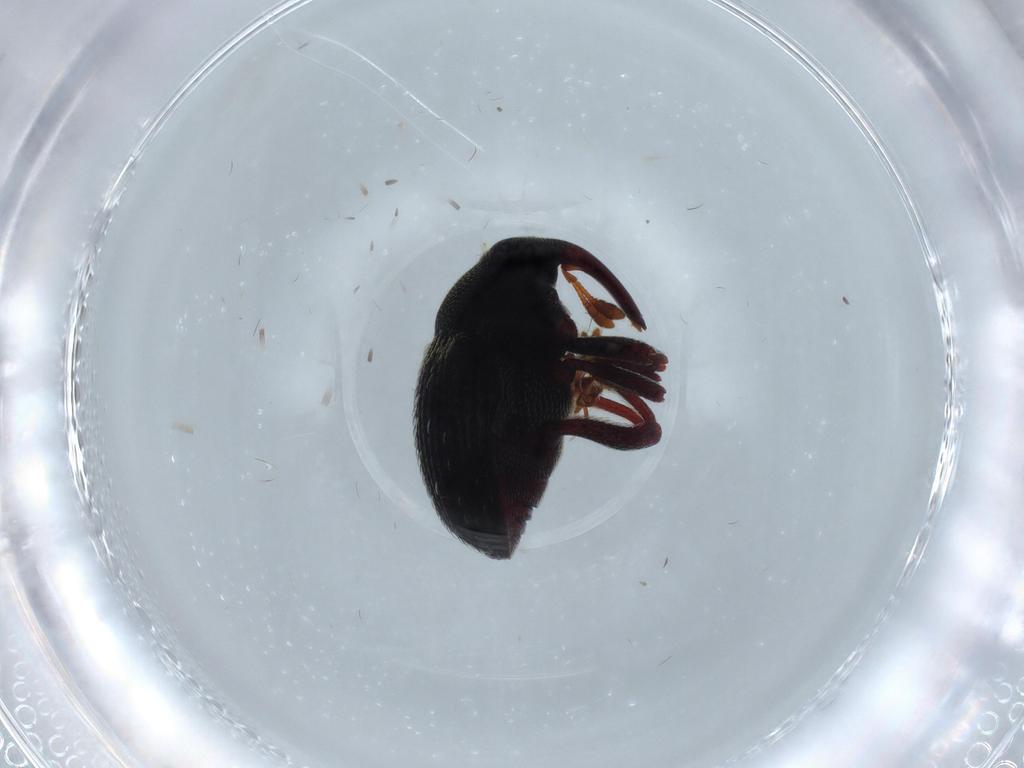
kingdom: Animalia
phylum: Arthropoda
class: Insecta
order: Coleoptera
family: Curculionidae
